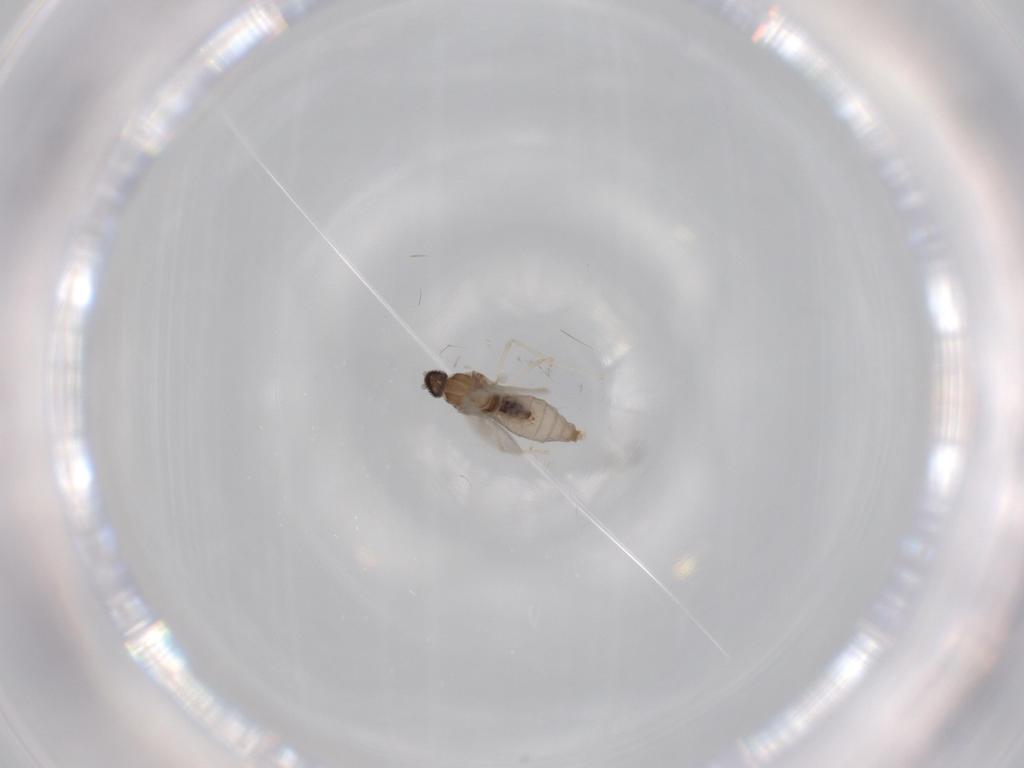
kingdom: Animalia
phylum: Arthropoda
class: Insecta
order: Diptera
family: Cecidomyiidae
